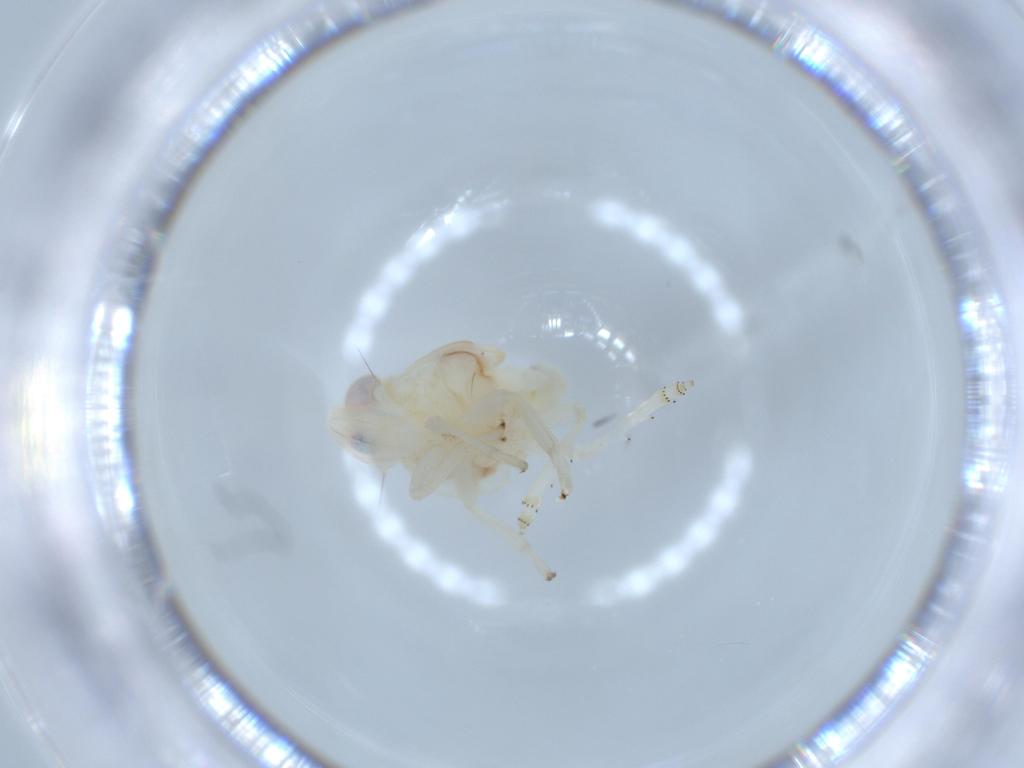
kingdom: Animalia
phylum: Arthropoda
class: Insecta
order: Hemiptera
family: Nogodinidae
